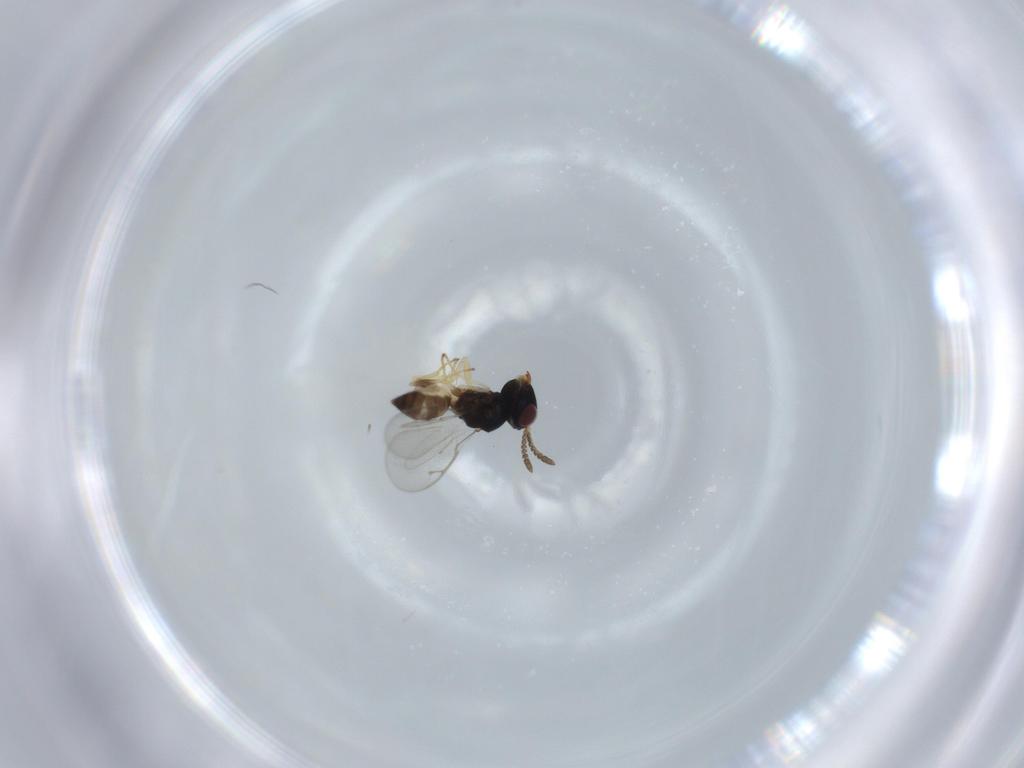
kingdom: Animalia
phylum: Arthropoda
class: Insecta
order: Hymenoptera
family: Pteromalidae
